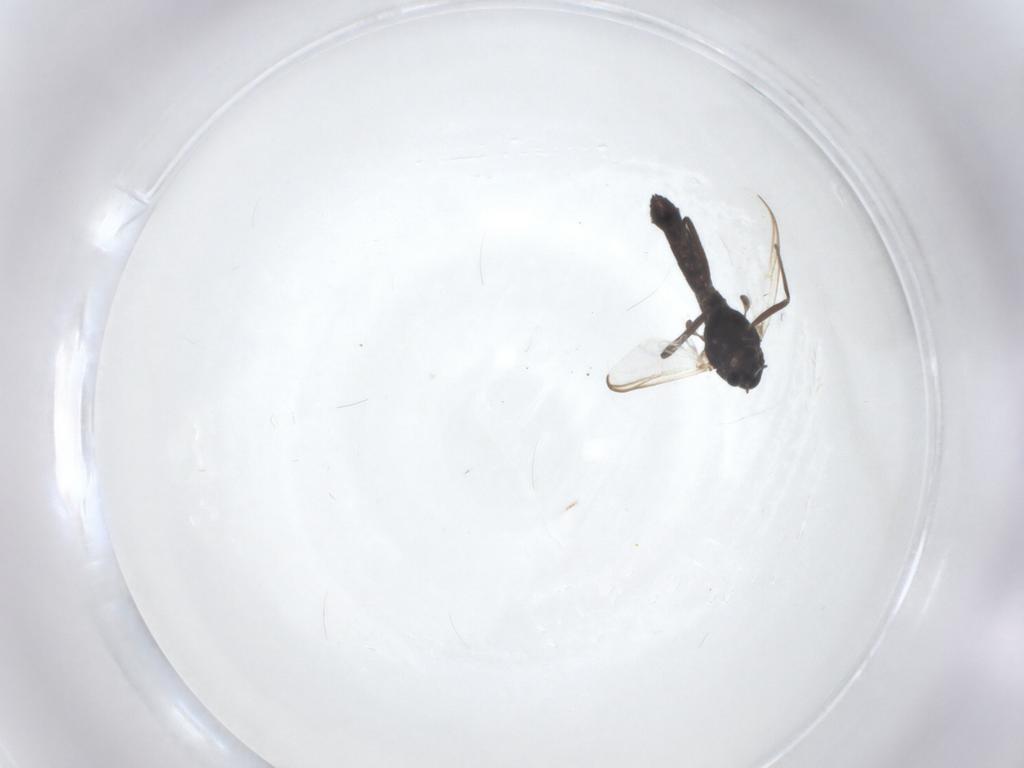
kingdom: Animalia
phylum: Arthropoda
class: Insecta
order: Diptera
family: Chironomidae
